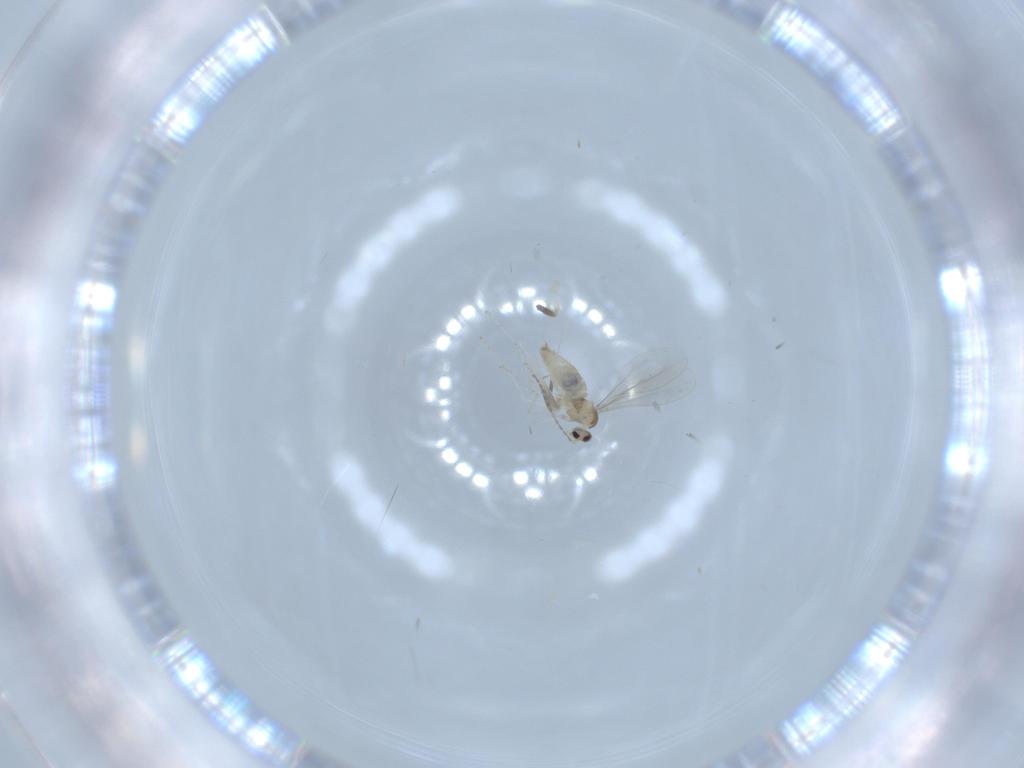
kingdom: Animalia
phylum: Arthropoda
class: Insecta
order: Diptera
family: Cecidomyiidae
